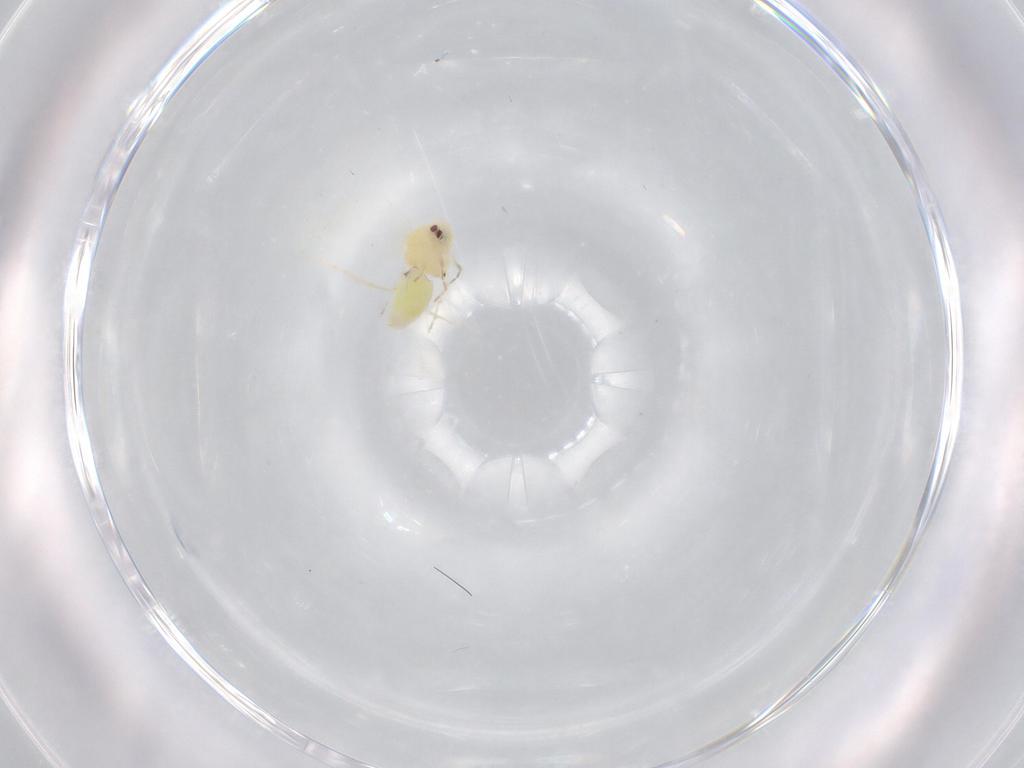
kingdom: Animalia
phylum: Arthropoda
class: Insecta
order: Hemiptera
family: Aleyrodidae
